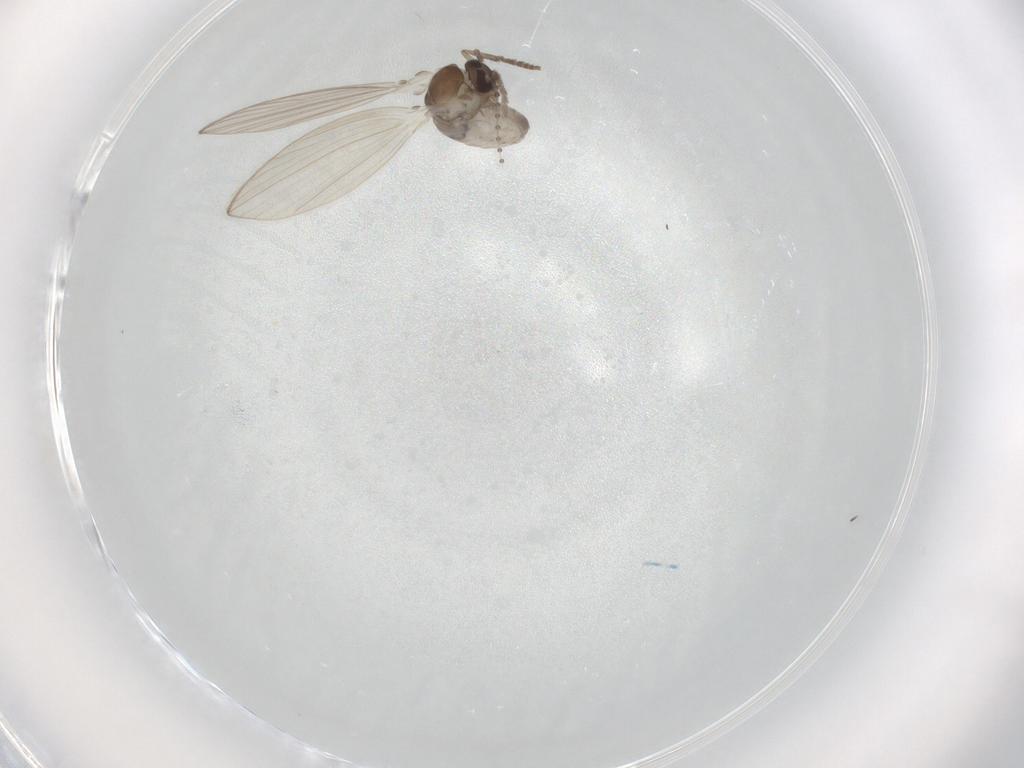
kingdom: Animalia
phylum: Arthropoda
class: Insecta
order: Diptera
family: Psychodidae
